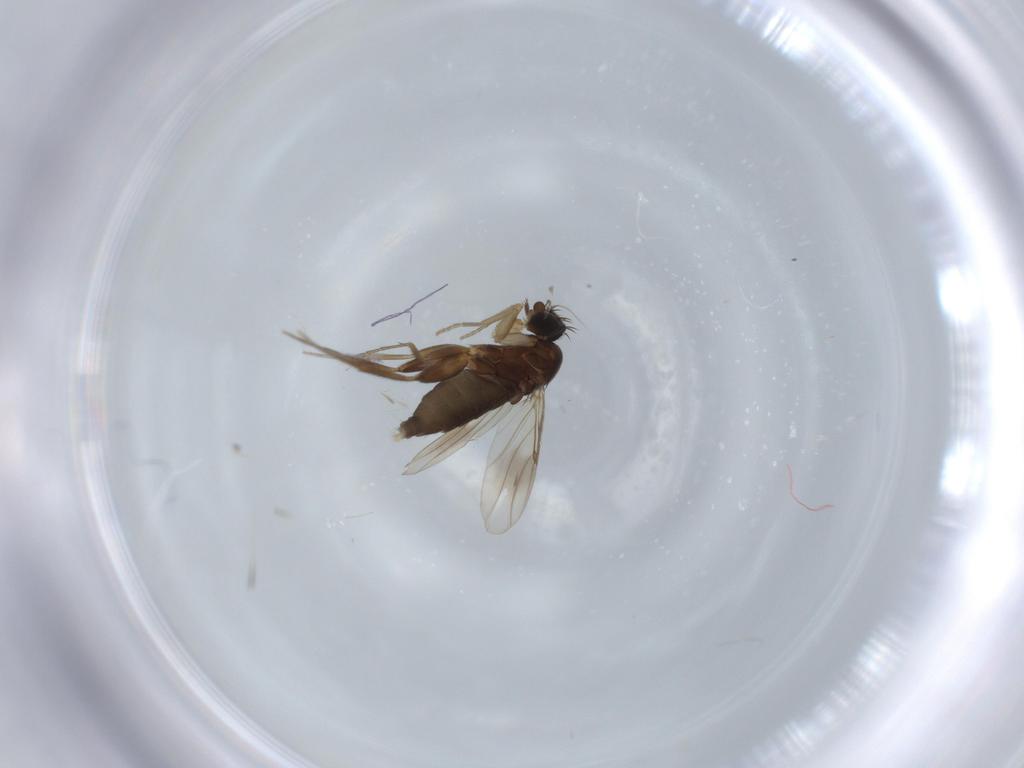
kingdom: Animalia
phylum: Arthropoda
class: Insecta
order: Diptera
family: Phoridae
